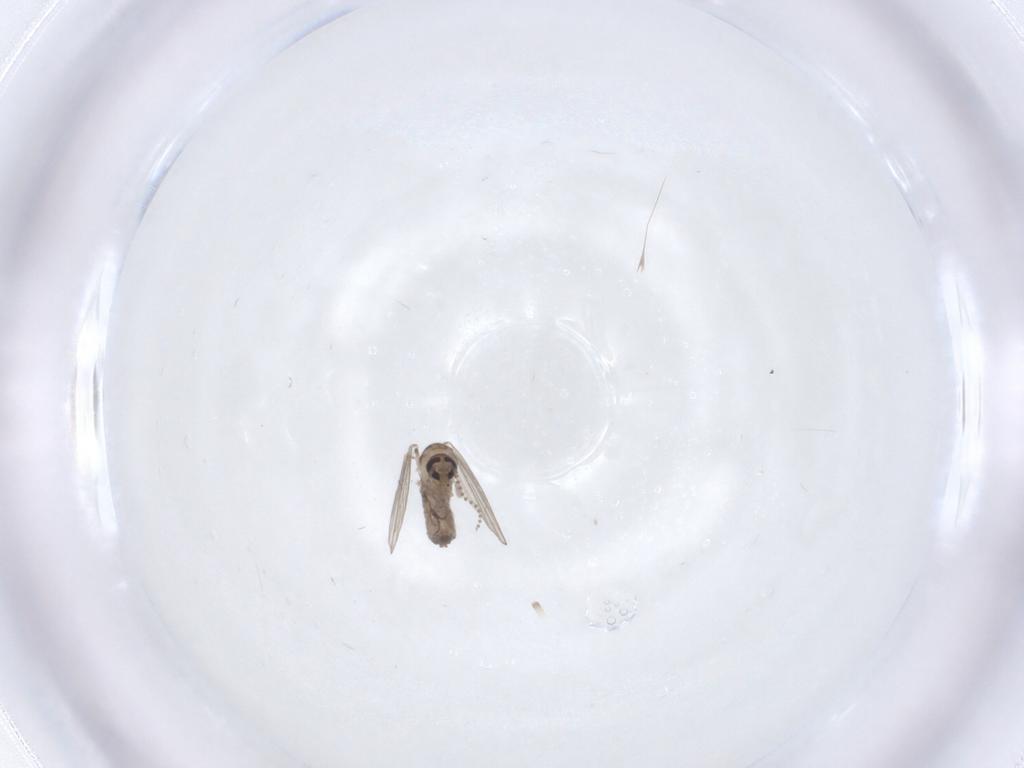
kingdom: Animalia
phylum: Arthropoda
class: Insecta
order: Diptera
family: Psychodidae
